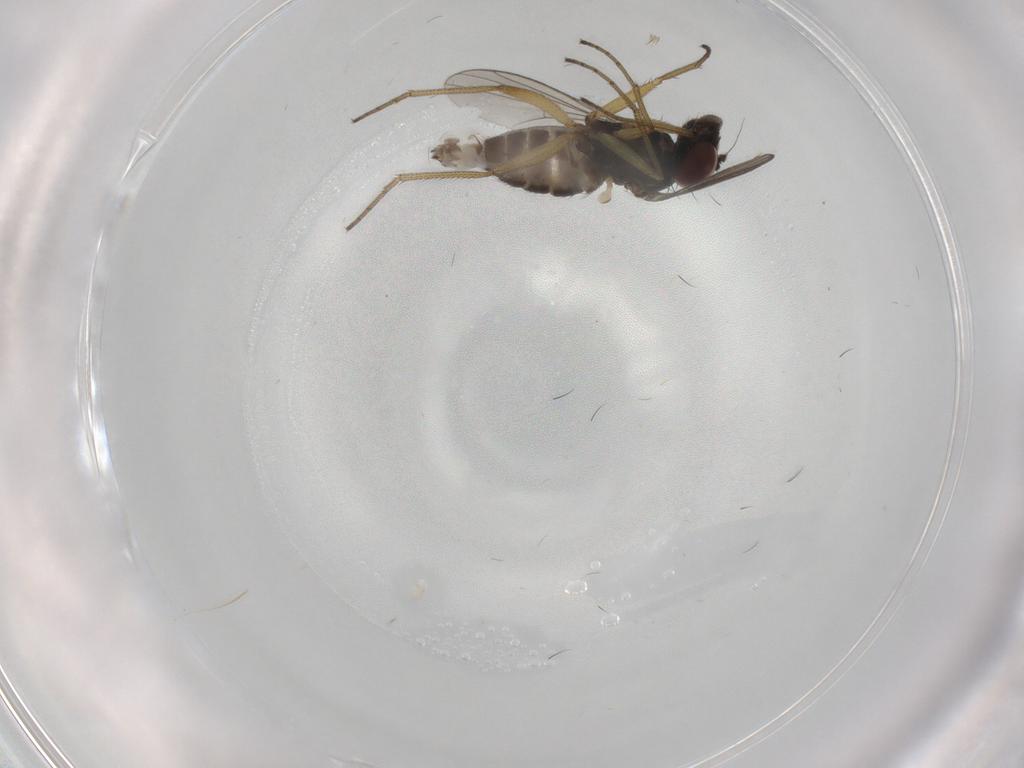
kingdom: Animalia
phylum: Arthropoda
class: Insecta
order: Diptera
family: Dolichopodidae
